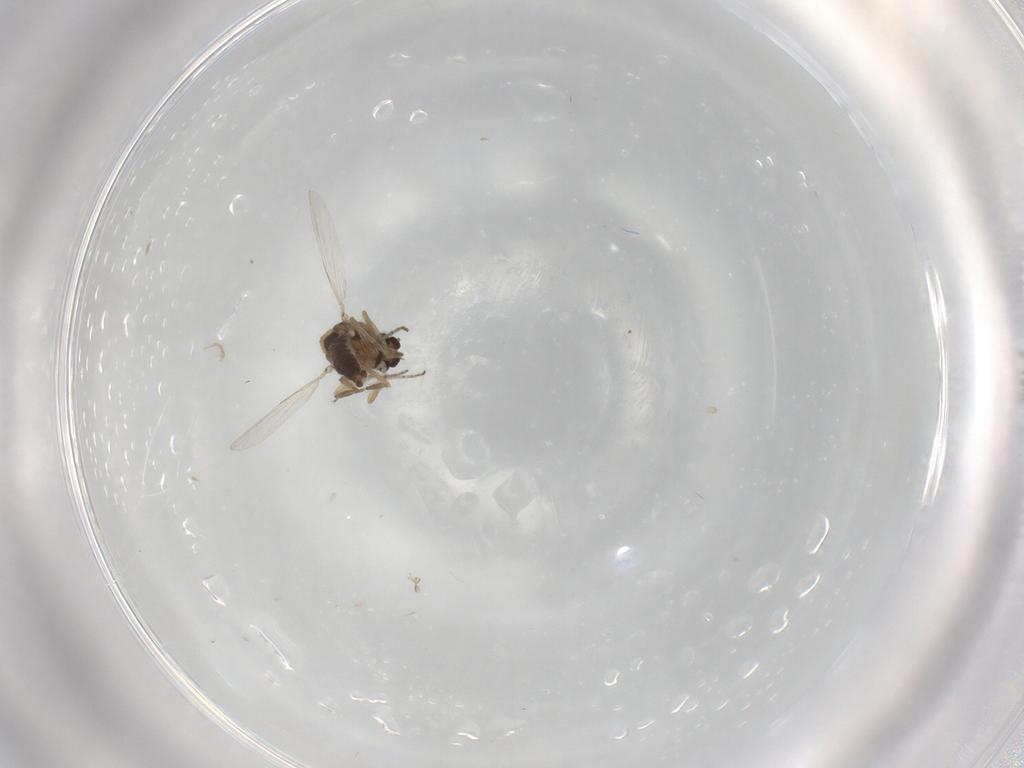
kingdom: Animalia
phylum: Arthropoda
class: Insecta
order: Diptera
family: Ceratopogonidae
